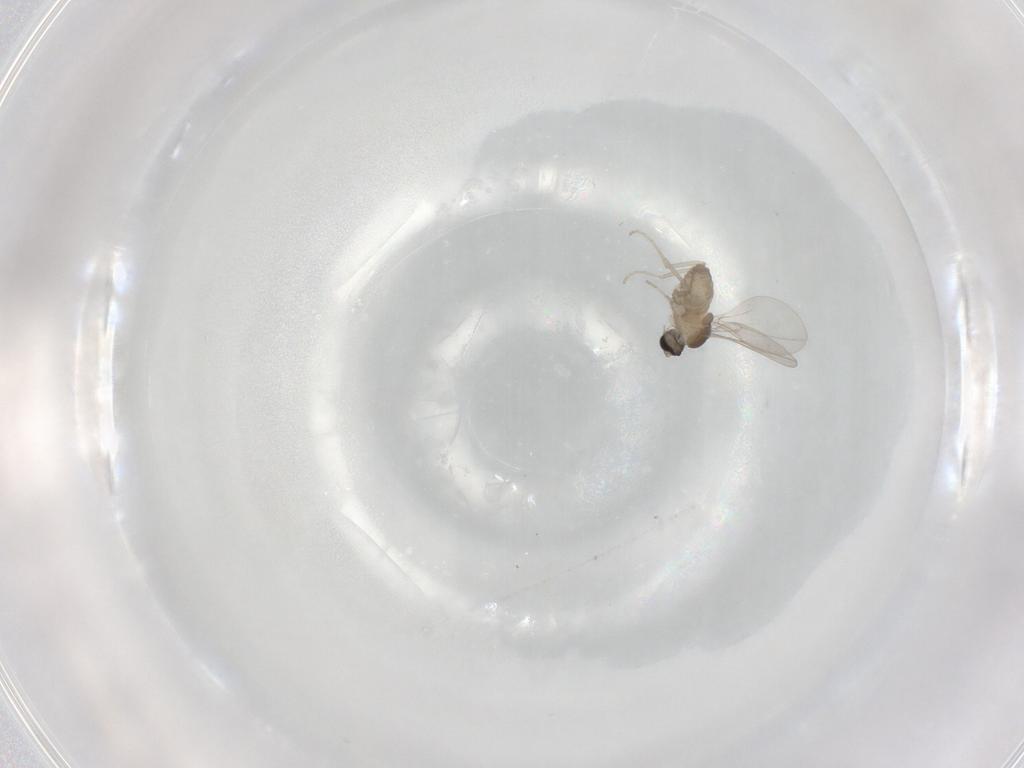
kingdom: Animalia
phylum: Arthropoda
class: Insecta
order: Diptera
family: Cecidomyiidae
